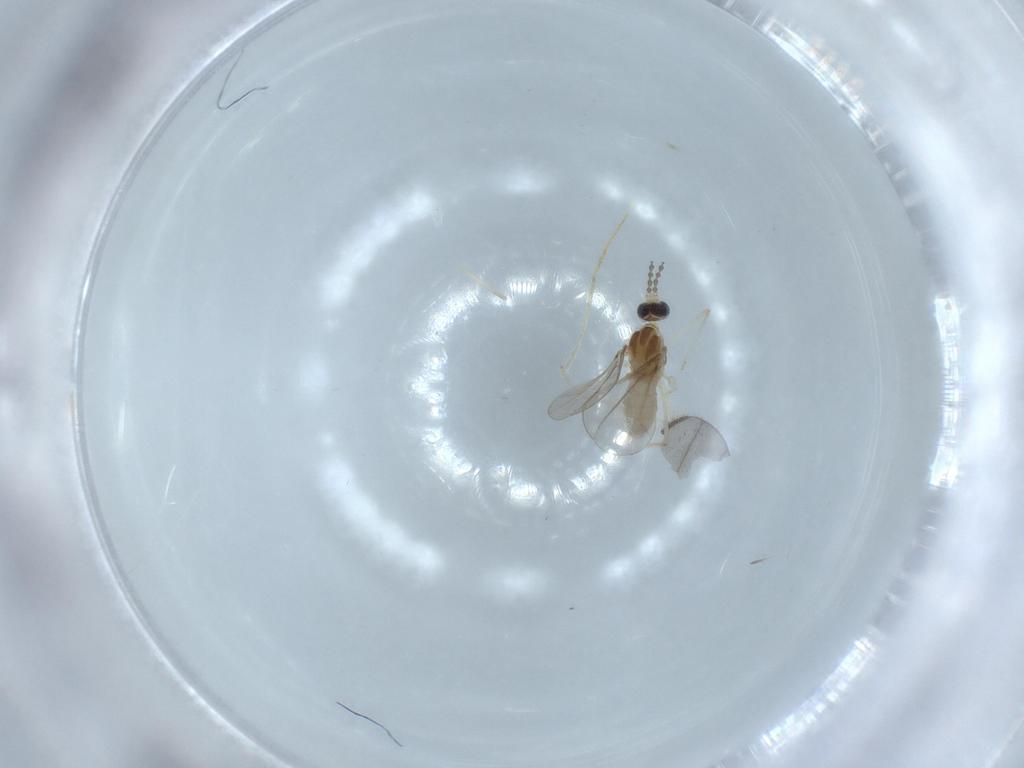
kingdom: Animalia
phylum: Arthropoda
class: Insecta
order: Diptera
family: Cecidomyiidae
